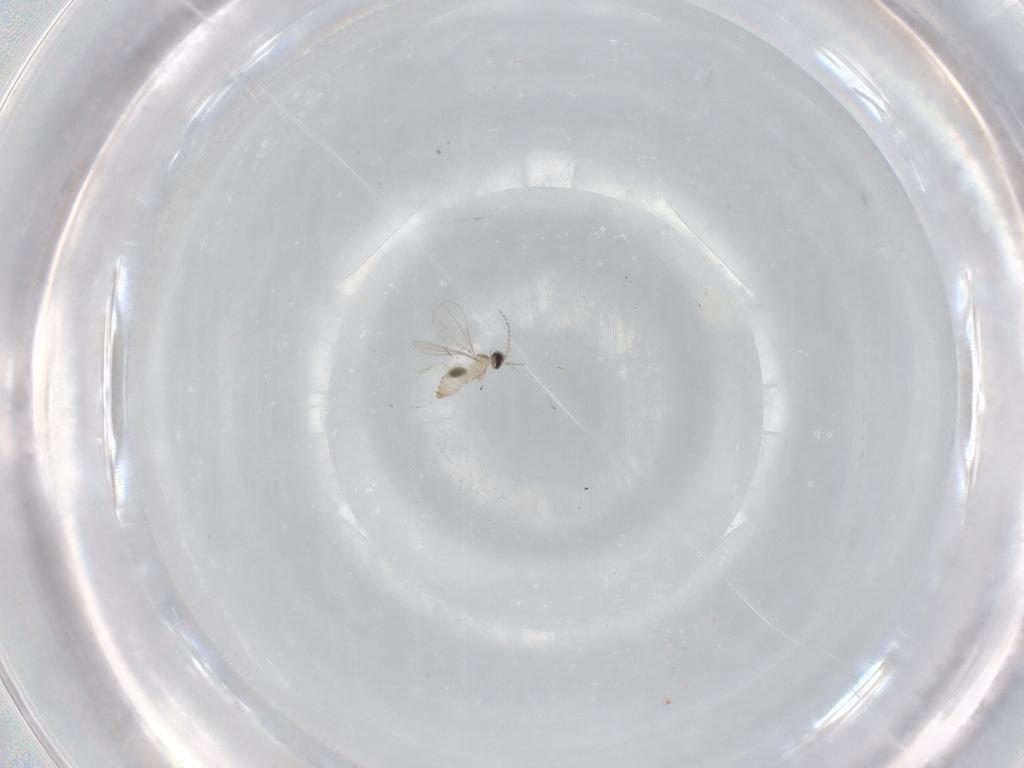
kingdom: Animalia
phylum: Arthropoda
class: Insecta
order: Diptera
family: Cecidomyiidae
